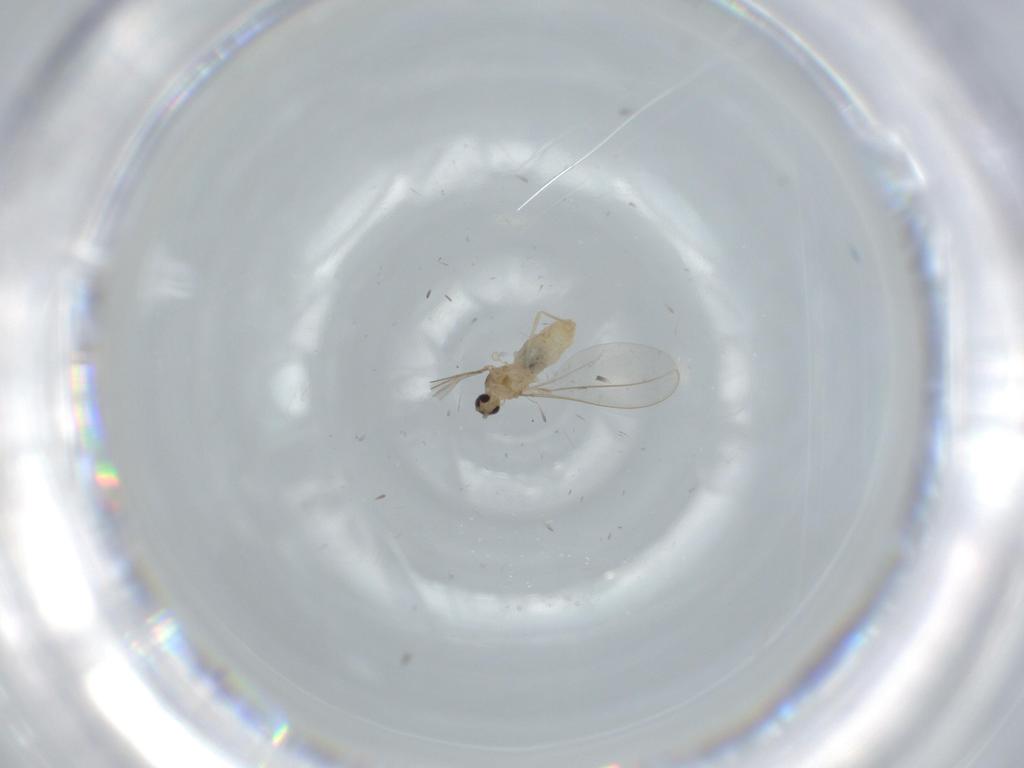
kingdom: Animalia
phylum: Arthropoda
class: Insecta
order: Diptera
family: Cecidomyiidae
